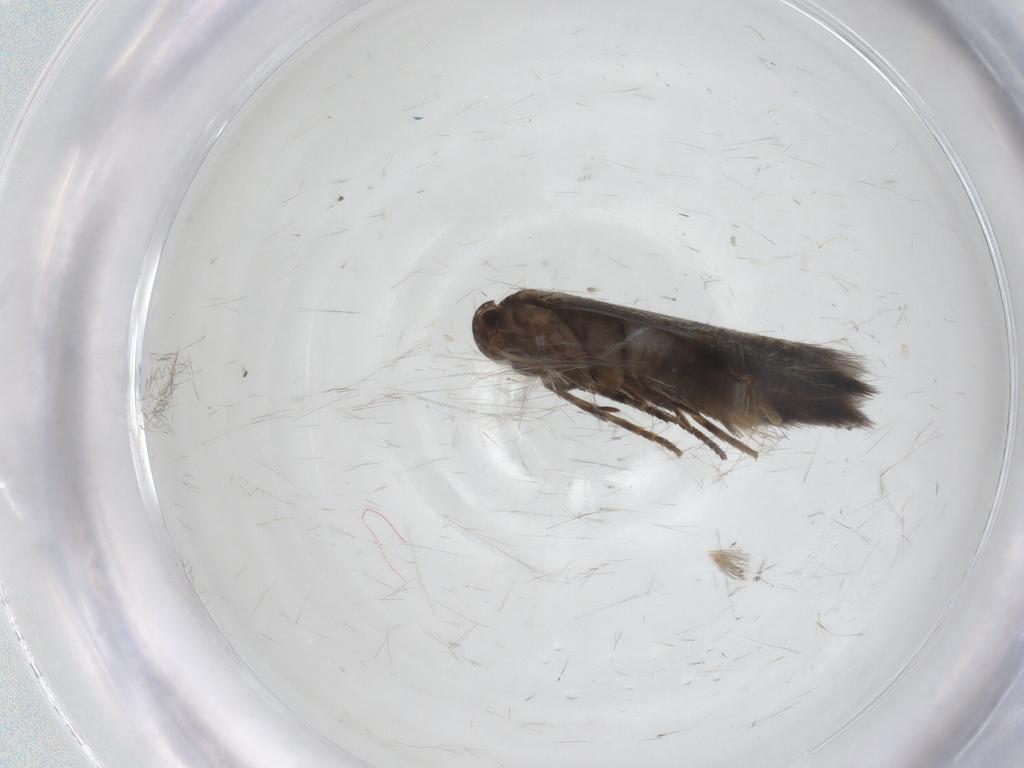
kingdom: Animalia
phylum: Arthropoda
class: Insecta
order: Lepidoptera
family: Elachistidae
